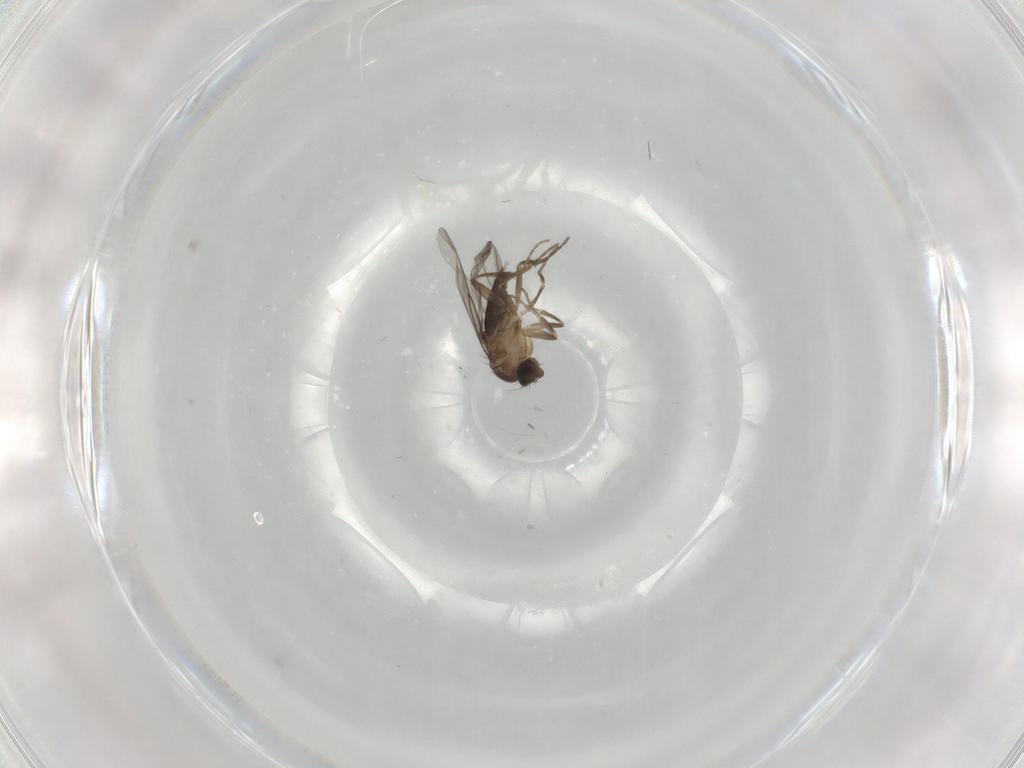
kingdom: Animalia
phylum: Arthropoda
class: Insecta
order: Diptera
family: Phoridae
